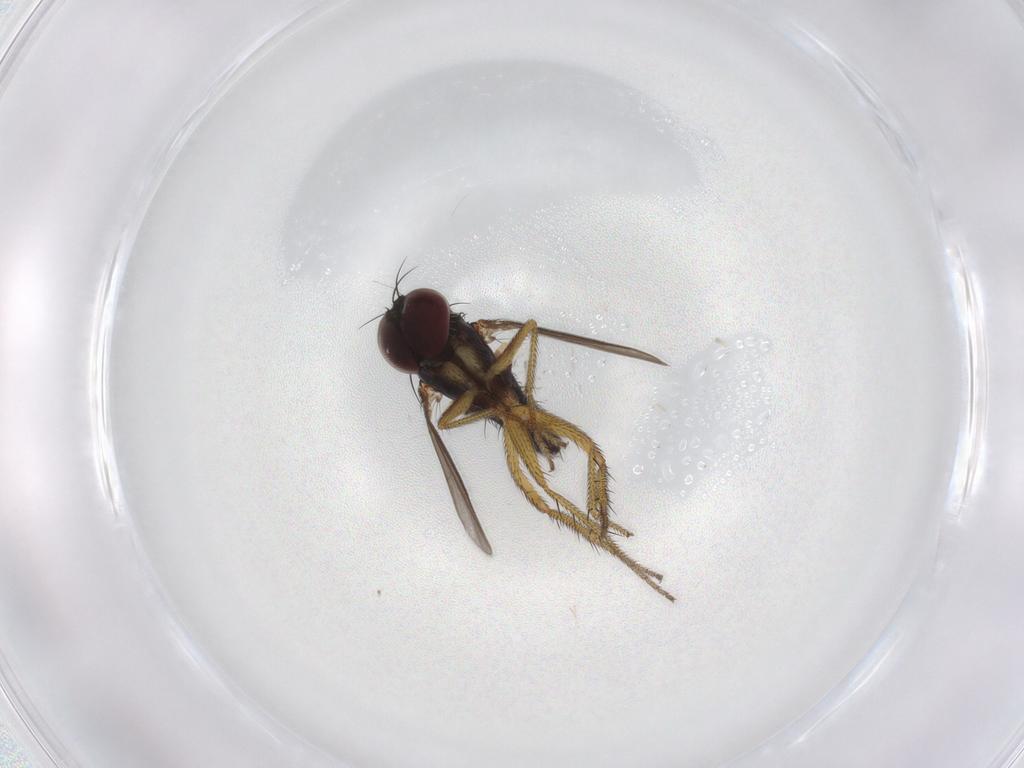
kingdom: Animalia
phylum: Arthropoda
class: Insecta
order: Diptera
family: Dolichopodidae
